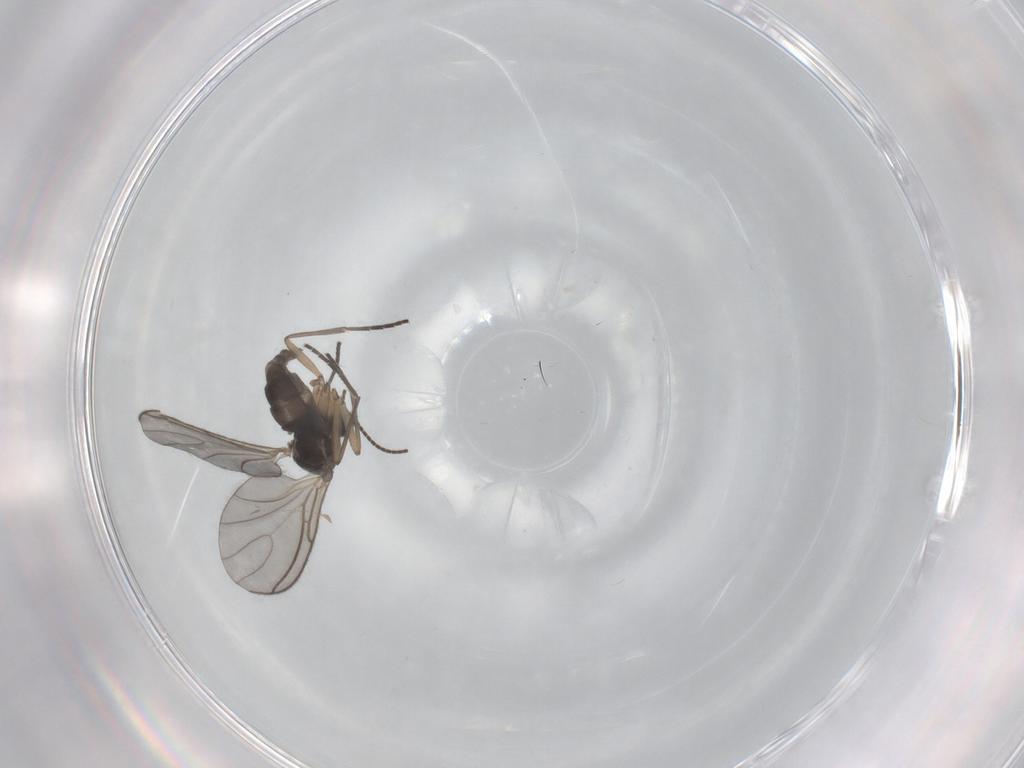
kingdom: Animalia
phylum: Arthropoda
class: Insecta
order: Diptera
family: Sciaridae
